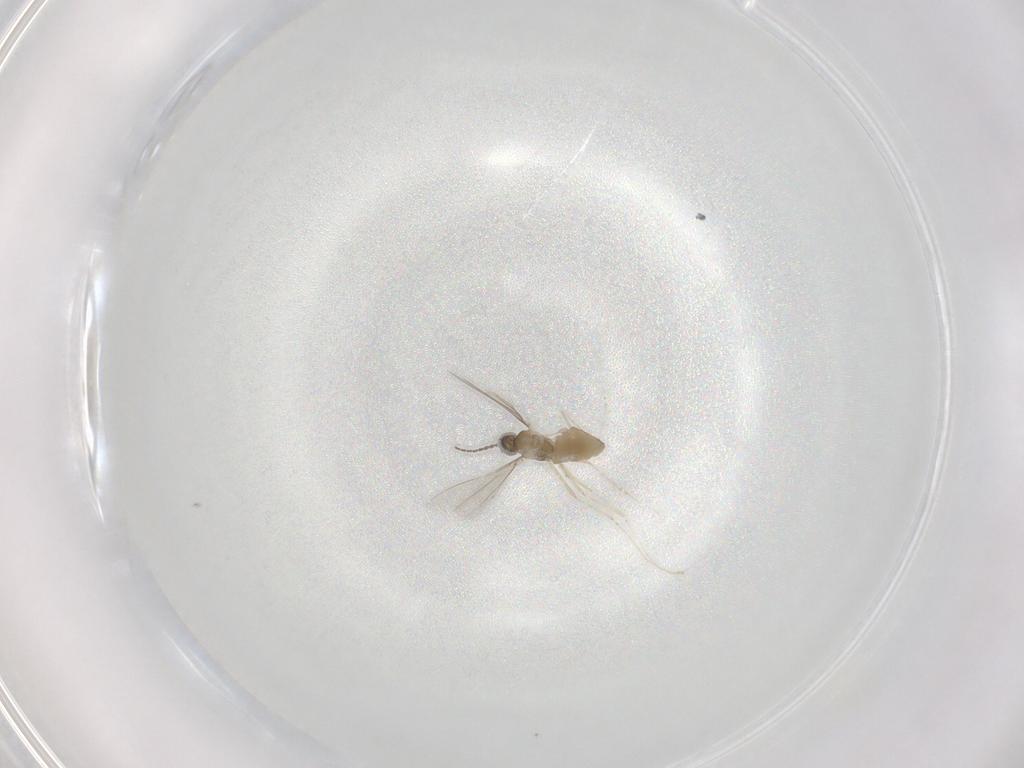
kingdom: Animalia
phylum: Arthropoda
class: Insecta
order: Diptera
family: Cecidomyiidae
